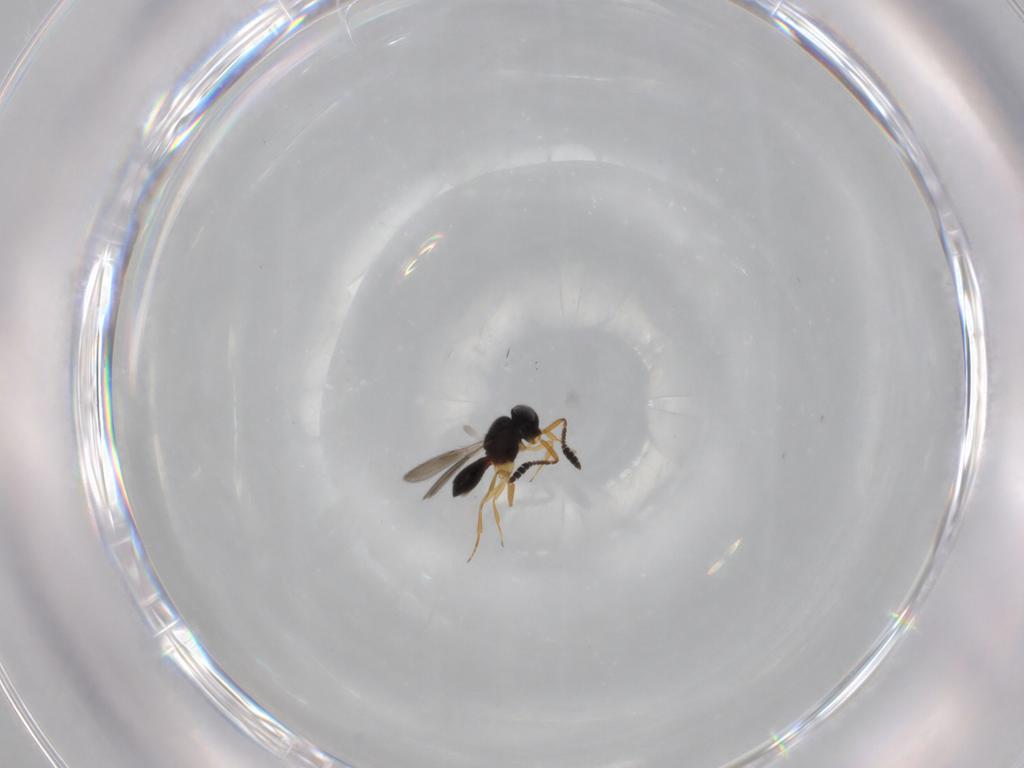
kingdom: Animalia
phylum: Arthropoda
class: Insecta
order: Hymenoptera
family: Scelionidae
